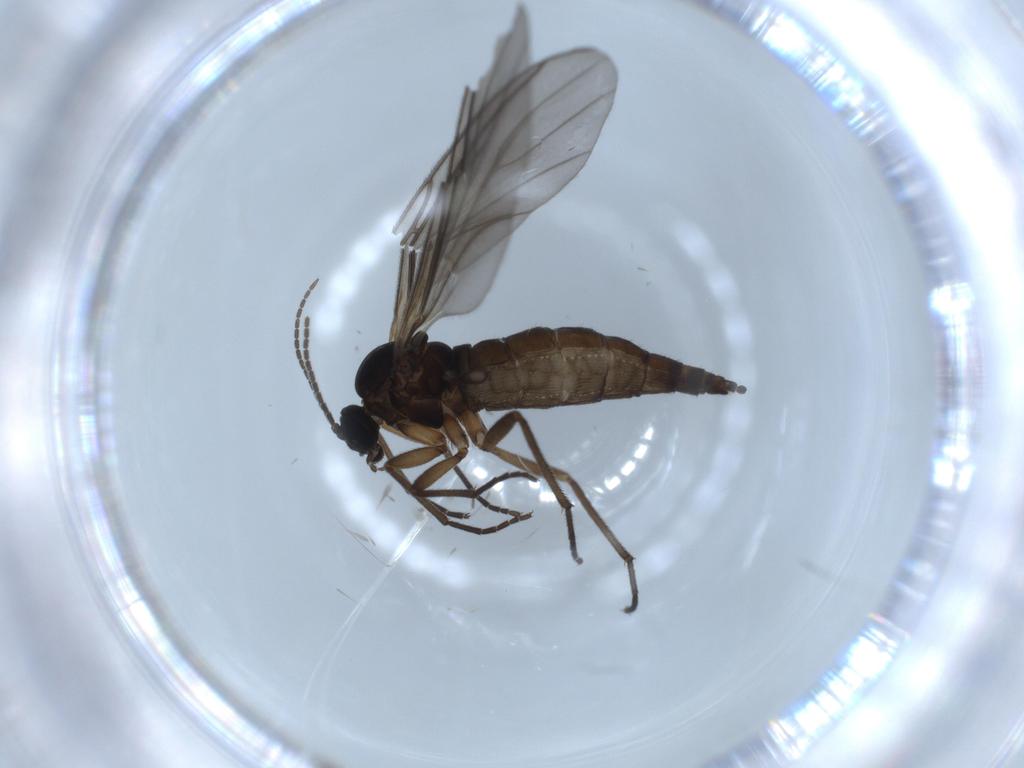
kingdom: Animalia
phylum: Arthropoda
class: Insecta
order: Diptera
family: Sciaridae
